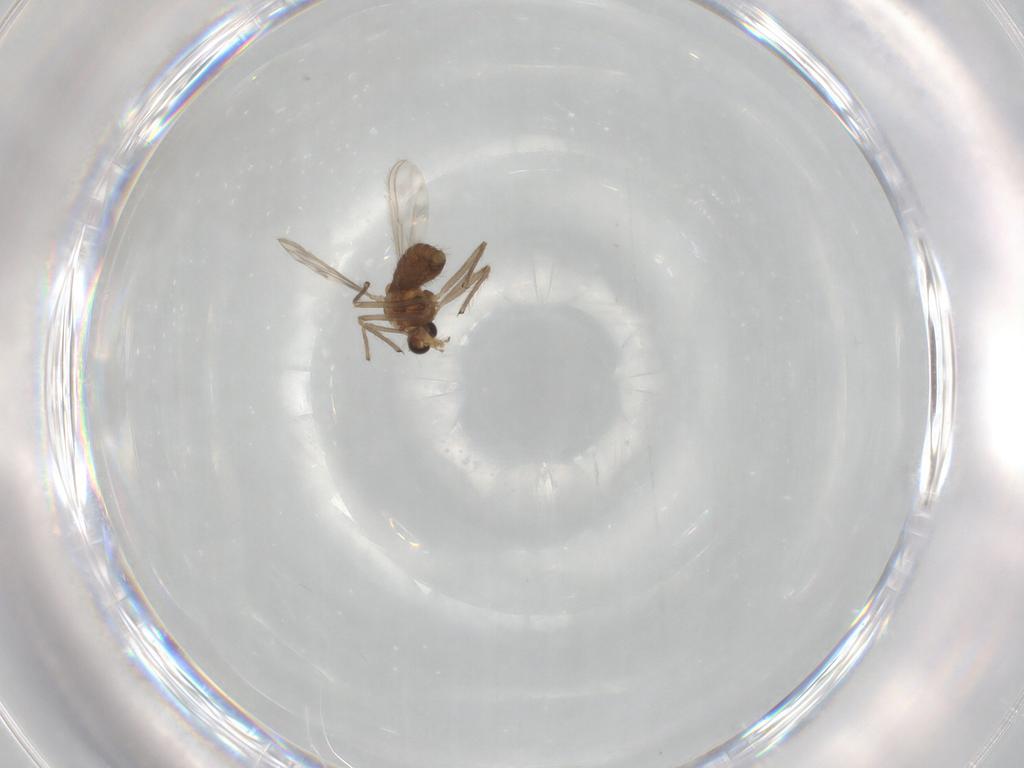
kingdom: Animalia
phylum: Arthropoda
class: Insecta
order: Diptera
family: Chironomidae
